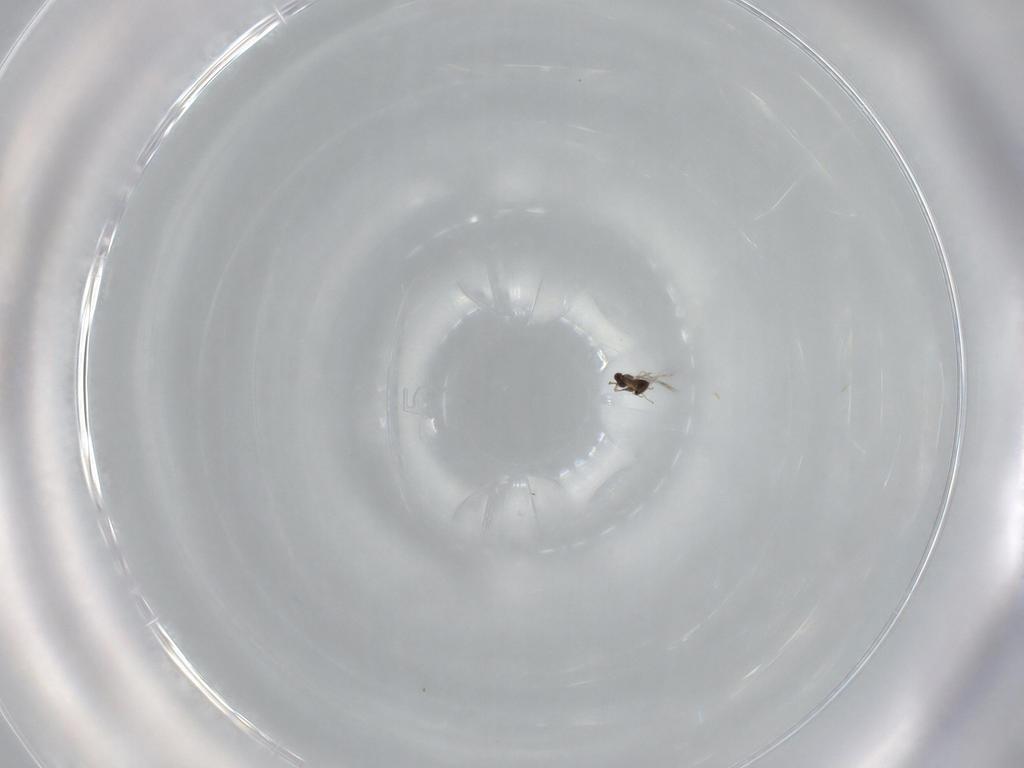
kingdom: Animalia
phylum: Arthropoda
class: Insecta
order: Hymenoptera
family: Mymaridae
